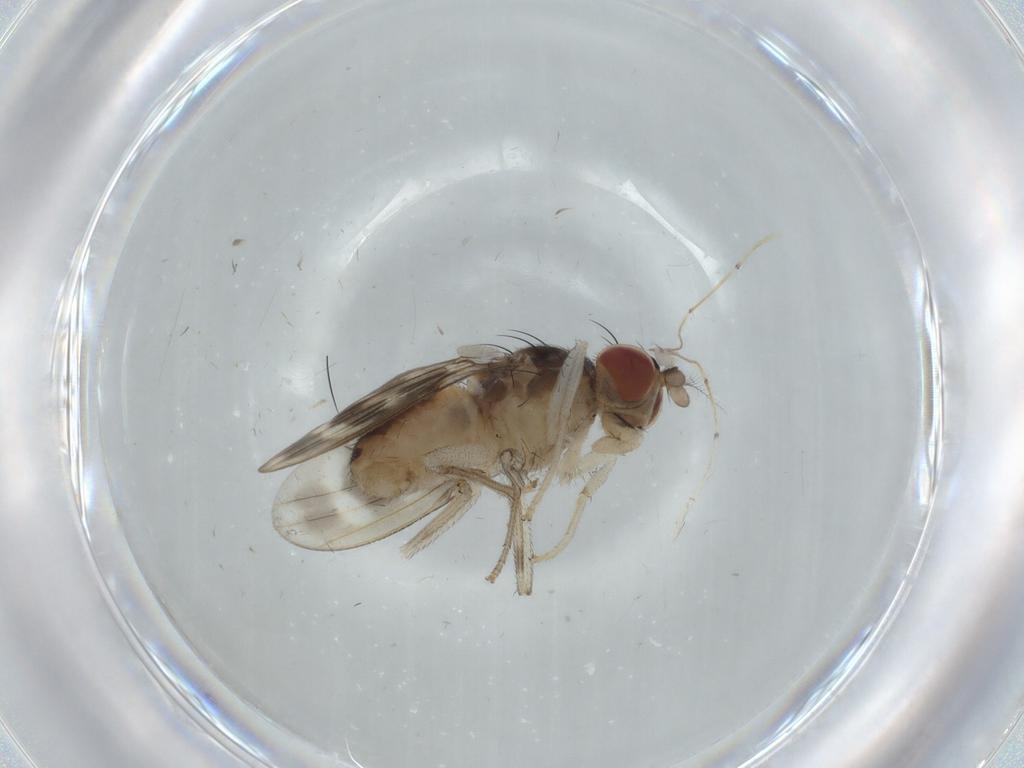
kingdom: Animalia
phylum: Arthropoda
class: Insecta
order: Diptera
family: Lauxaniidae
